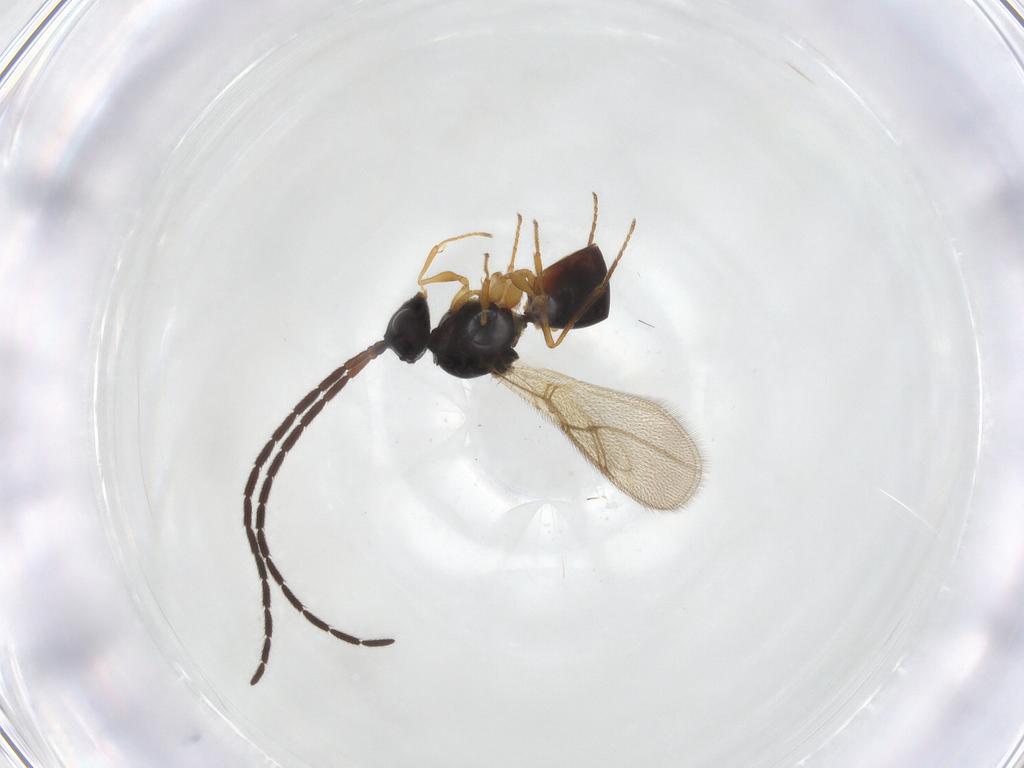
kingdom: Animalia
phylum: Arthropoda
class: Insecta
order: Hymenoptera
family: Figitidae
